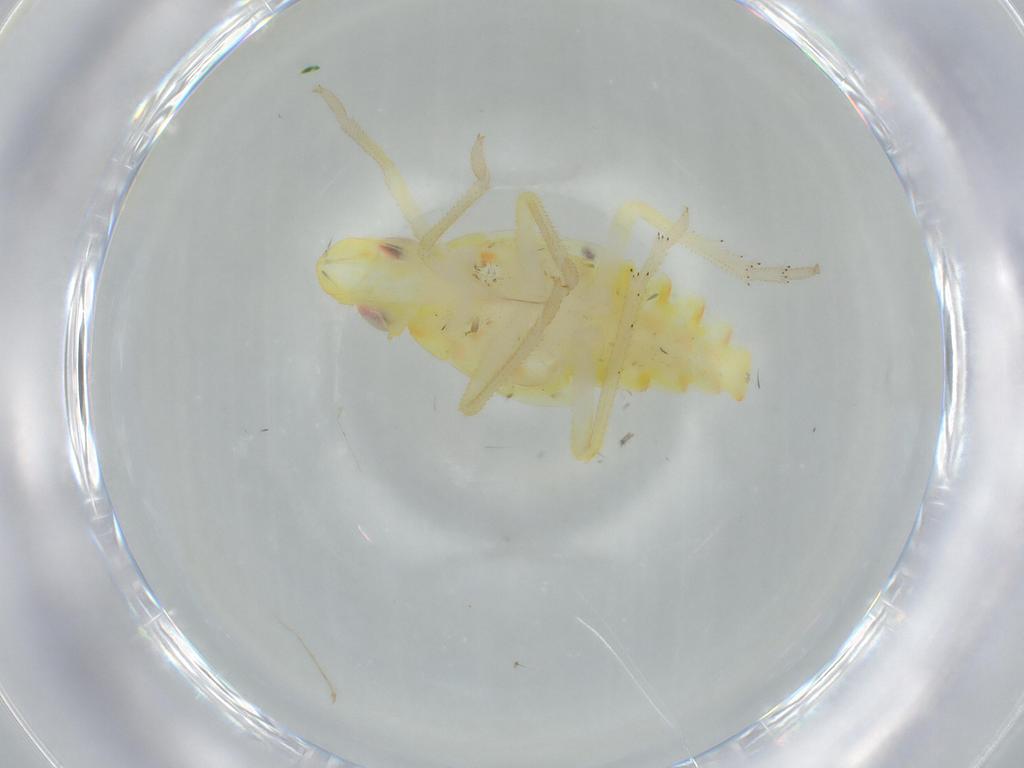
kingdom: Animalia
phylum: Arthropoda
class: Insecta
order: Hemiptera
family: Tropiduchidae
